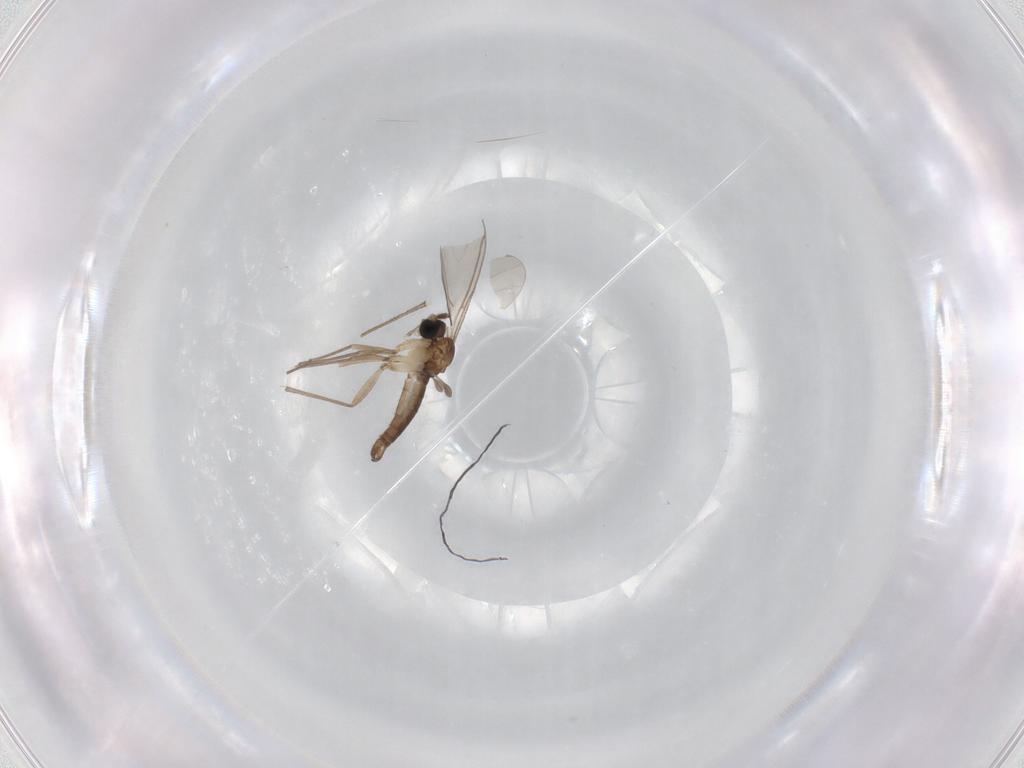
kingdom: Animalia
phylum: Arthropoda
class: Insecta
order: Diptera
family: Sciaridae
